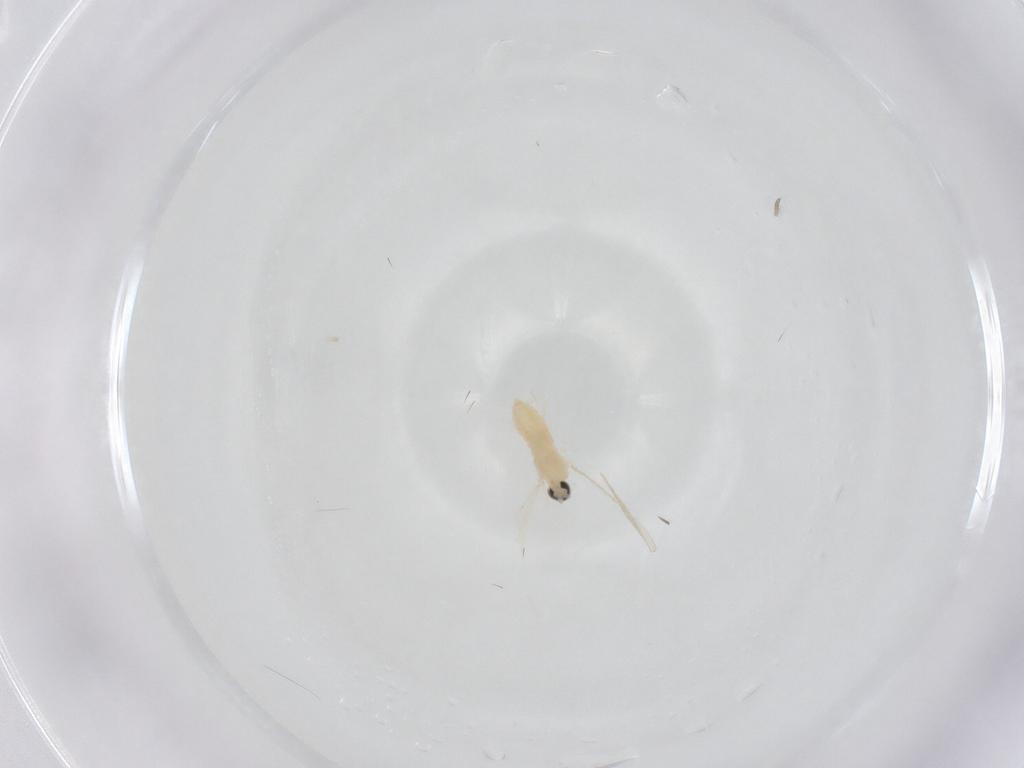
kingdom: Animalia
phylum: Arthropoda
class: Insecta
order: Diptera
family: Cecidomyiidae
